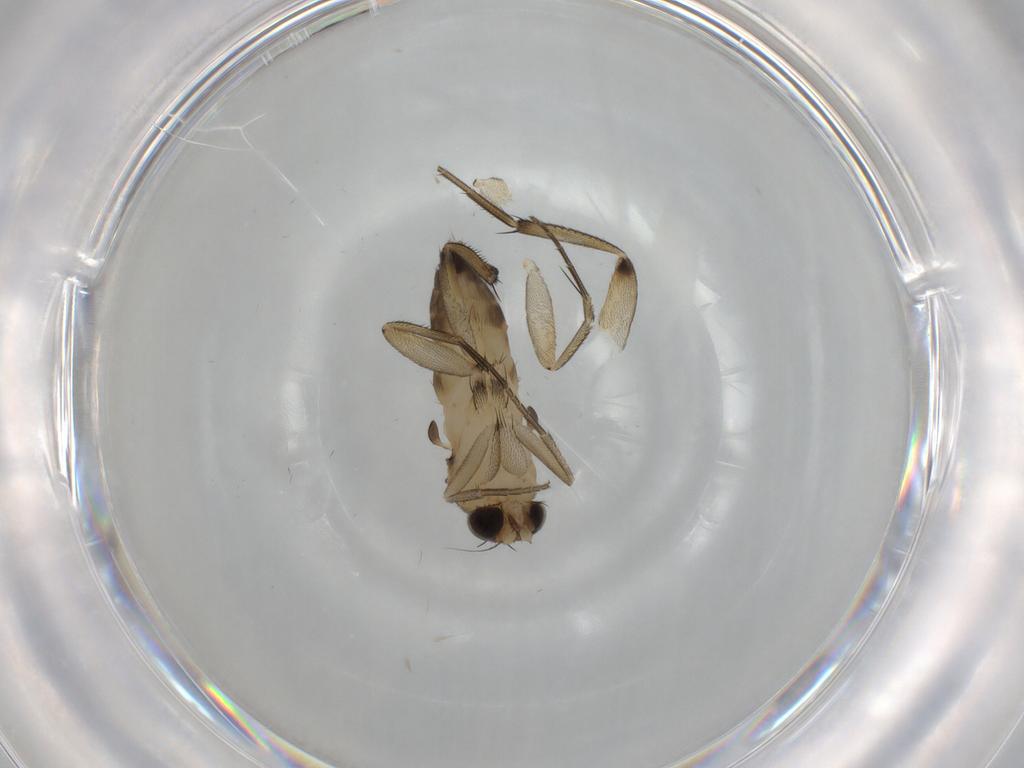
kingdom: Animalia
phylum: Arthropoda
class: Insecta
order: Diptera
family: Phoridae
